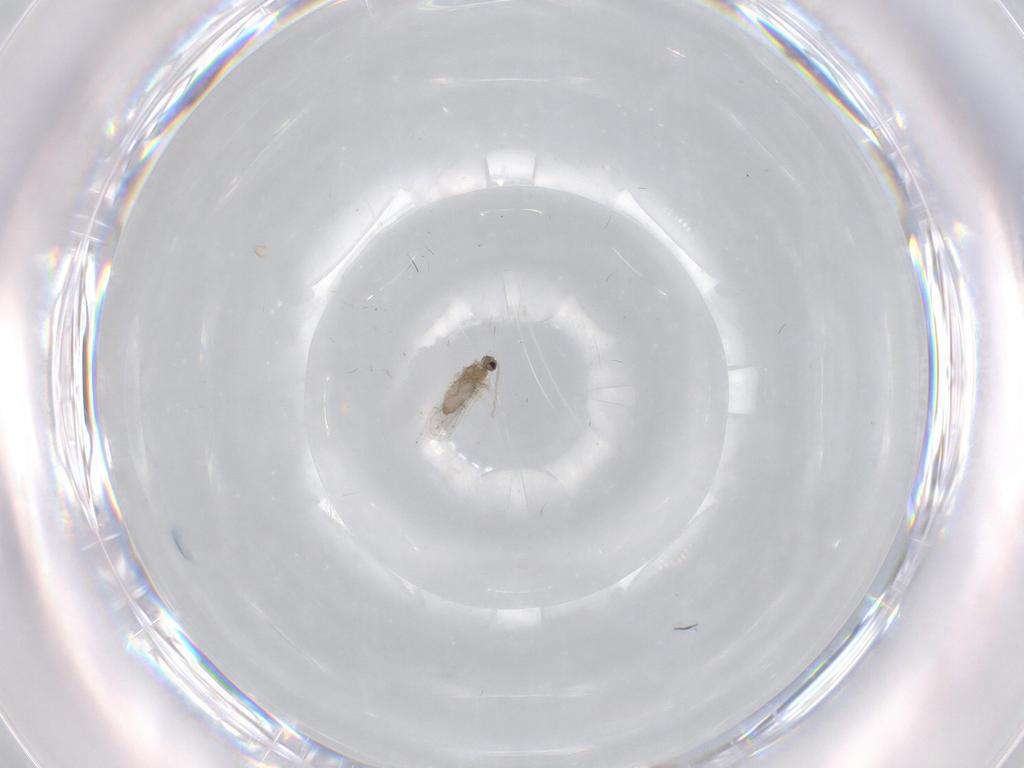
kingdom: Animalia
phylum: Arthropoda
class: Insecta
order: Diptera
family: Cecidomyiidae
